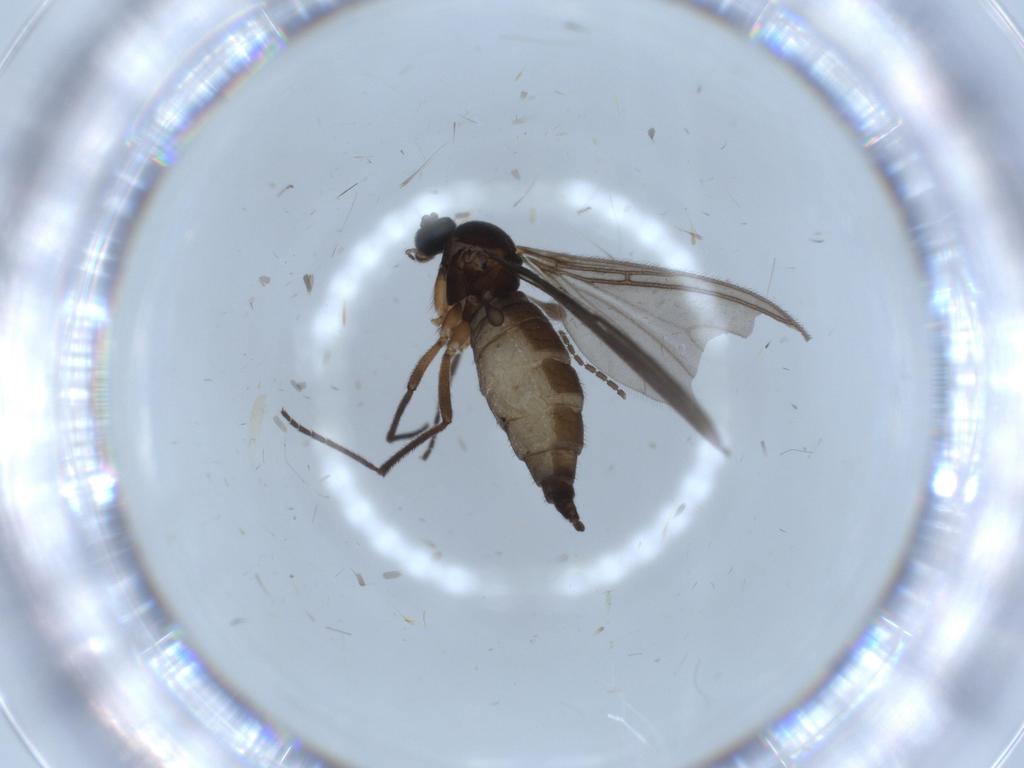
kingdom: Animalia
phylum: Arthropoda
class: Insecta
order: Diptera
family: Sciaridae
